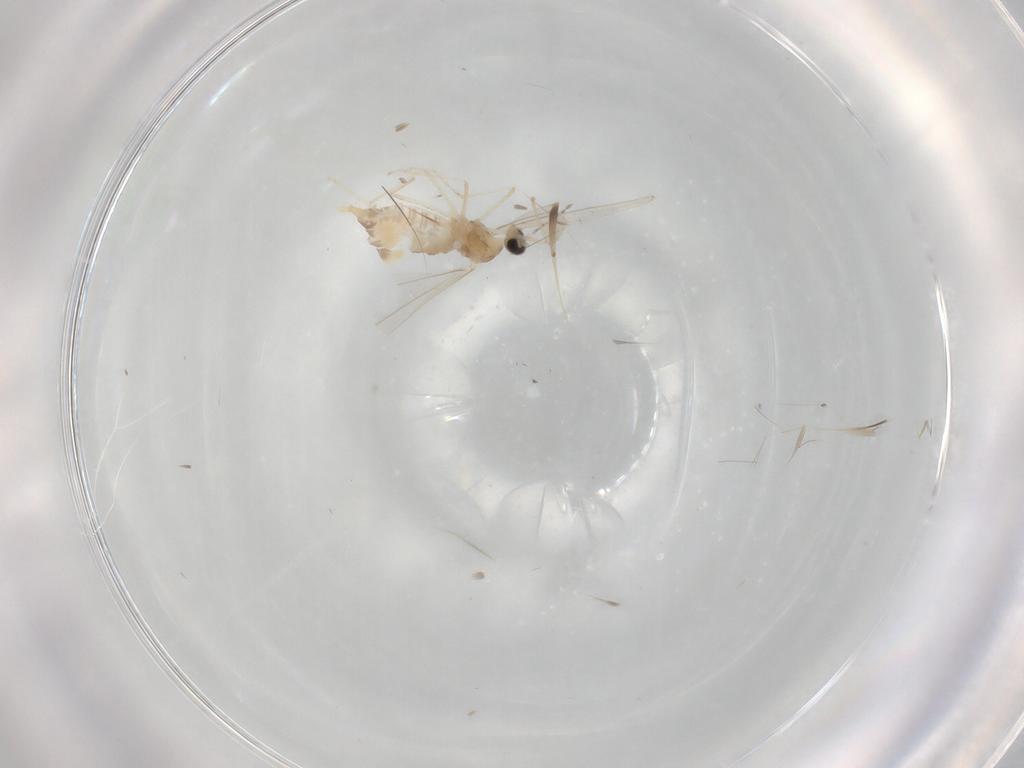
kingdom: Animalia
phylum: Arthropoda
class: Insecta
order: Diptera
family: Cecidomyiidae
